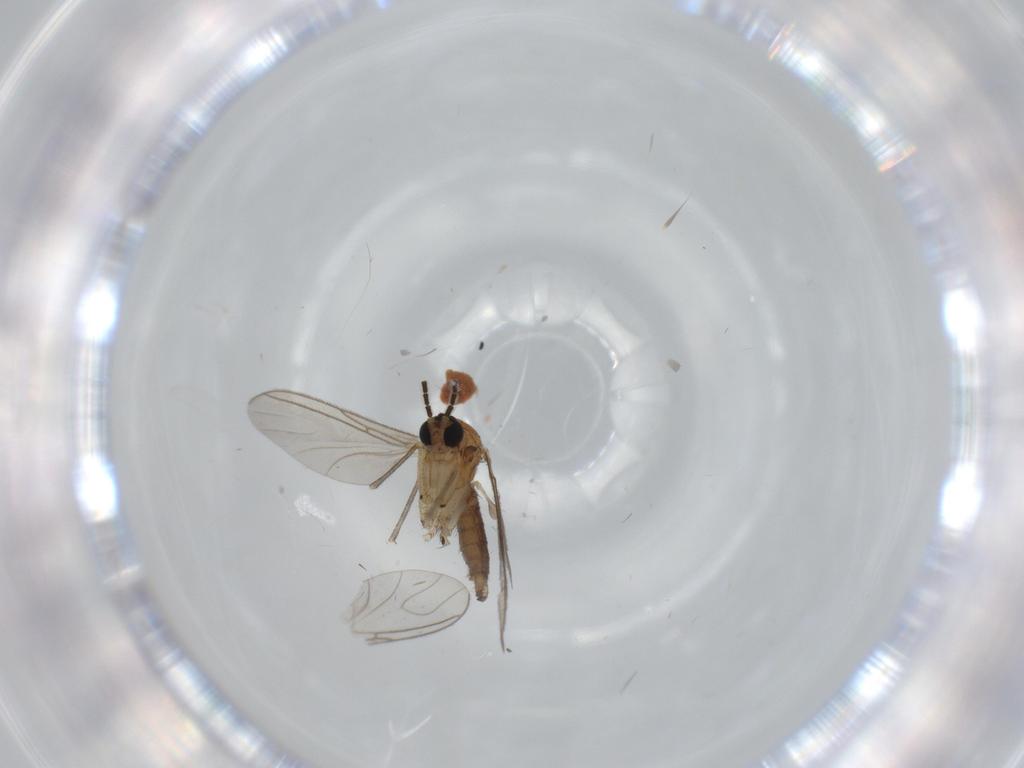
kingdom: Animalia
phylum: Arthropoda
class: Insecta
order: Diptera
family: Sciaridae
